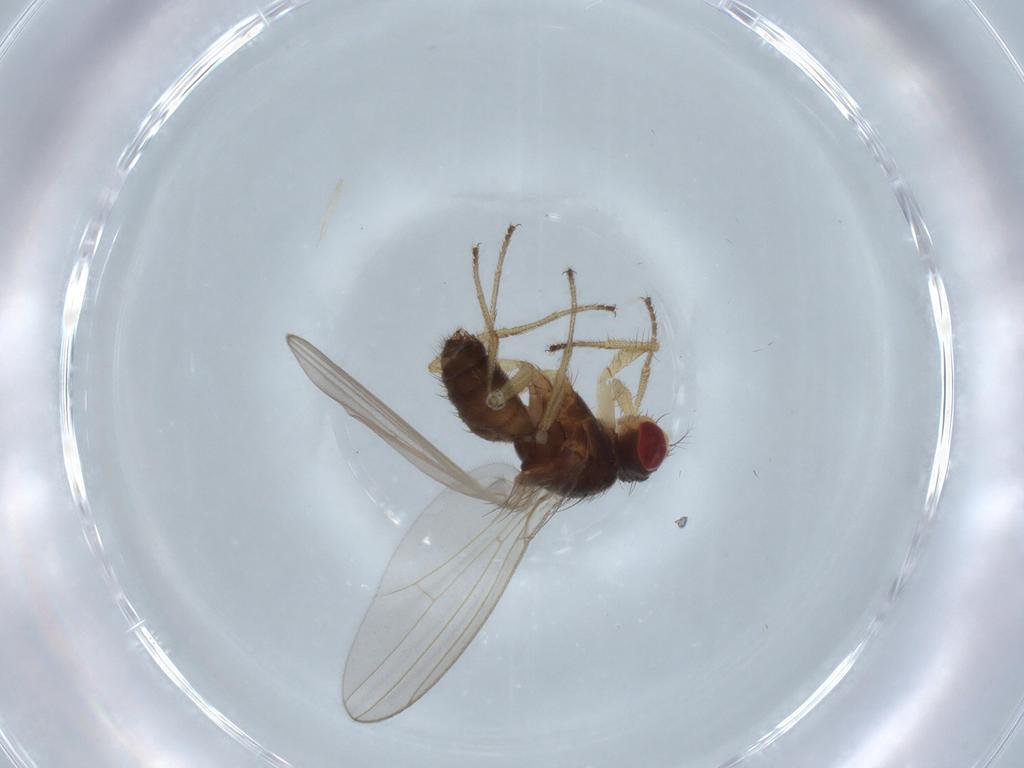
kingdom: Animalia
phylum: Arthropoda
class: Insecta
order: Diptera
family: Drosophilidae
